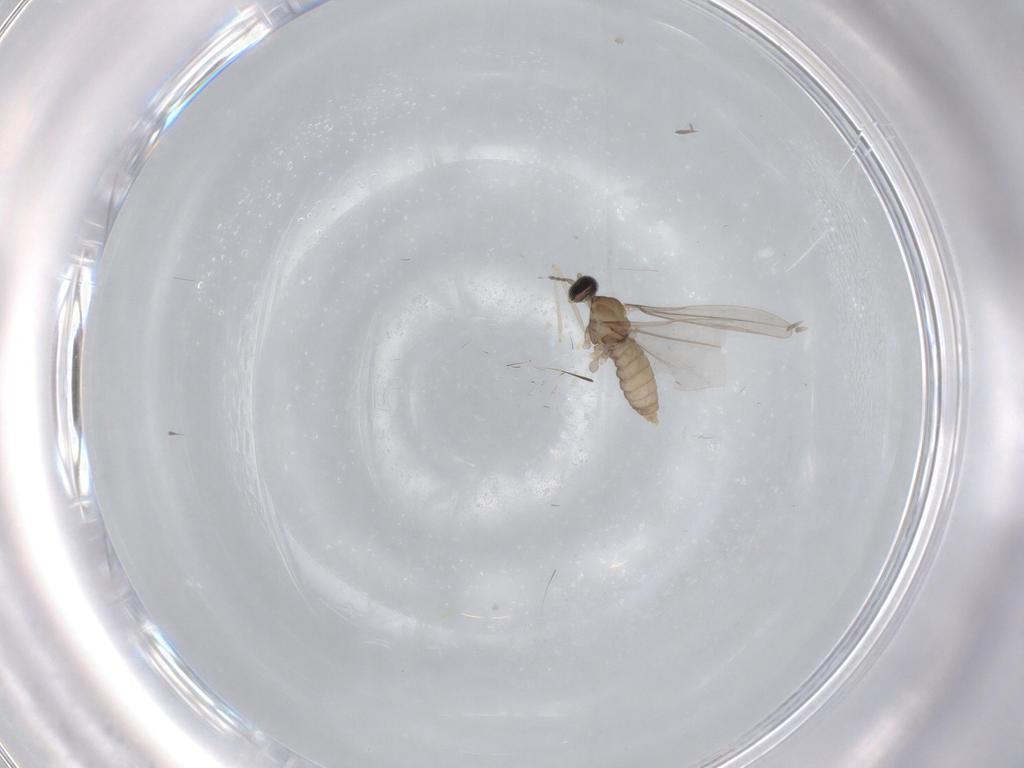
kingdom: Animalia
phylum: Arthropoda
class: Insecta
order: Diptera
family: Cecidomyiidae
